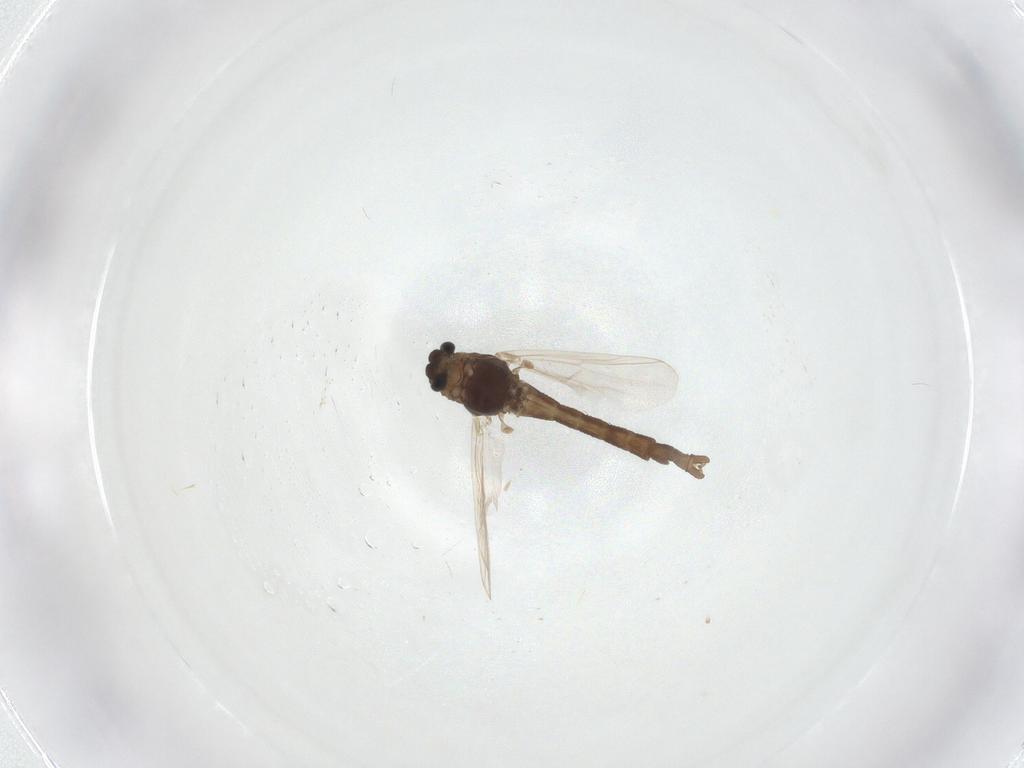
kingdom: Animalia
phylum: Arthropoda
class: Insecta
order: Diptera
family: Chironomidae
